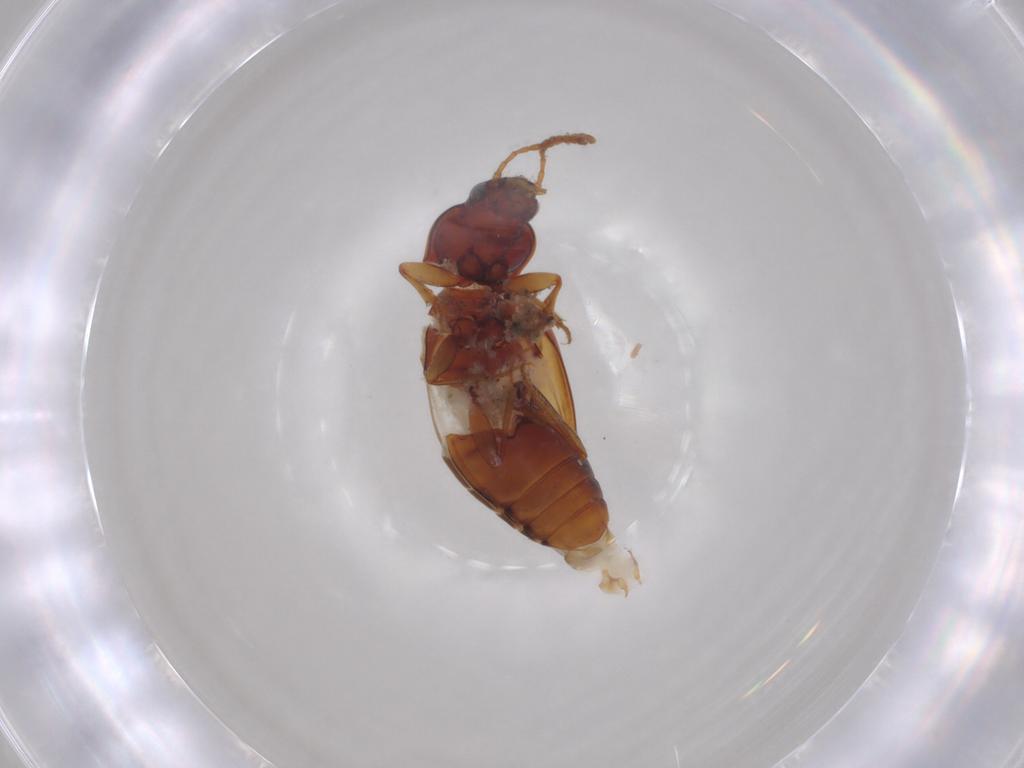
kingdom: Animalia
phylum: Arthropoda
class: Insecta
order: Coleoptera
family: Carabidae
